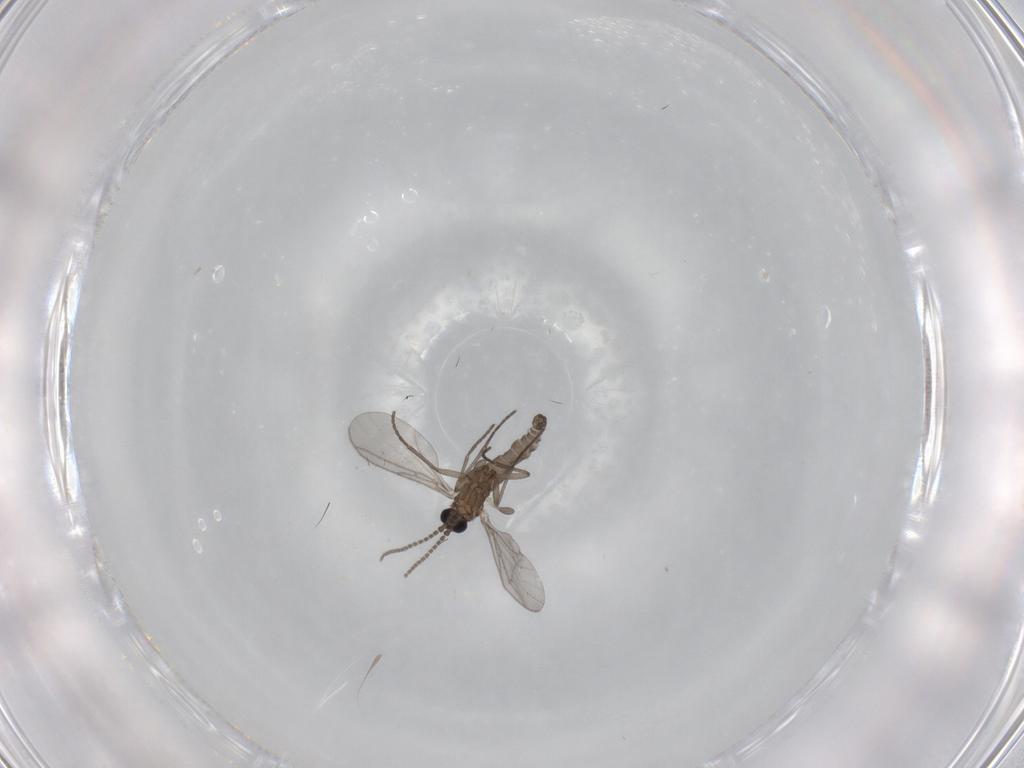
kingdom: Animalia
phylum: Arthropoda
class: Insecta
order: Diptera
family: Sciaridae
